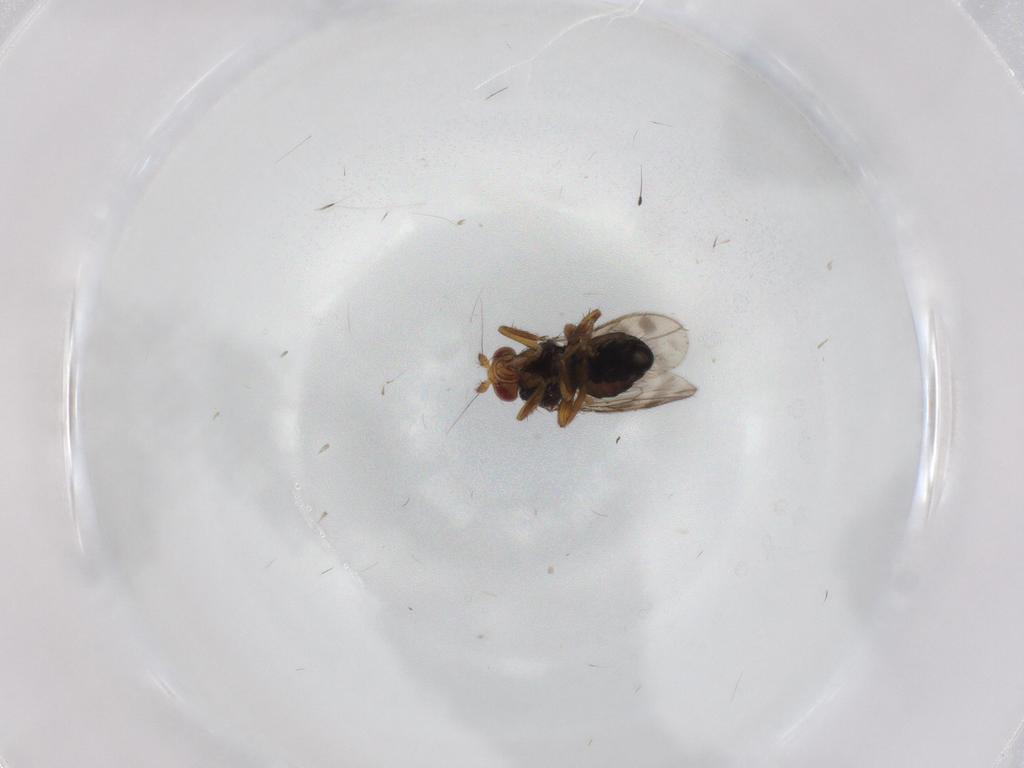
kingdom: Animalia
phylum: Arthropoda
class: Insecta
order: Diptera
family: Sphaeroceridae
